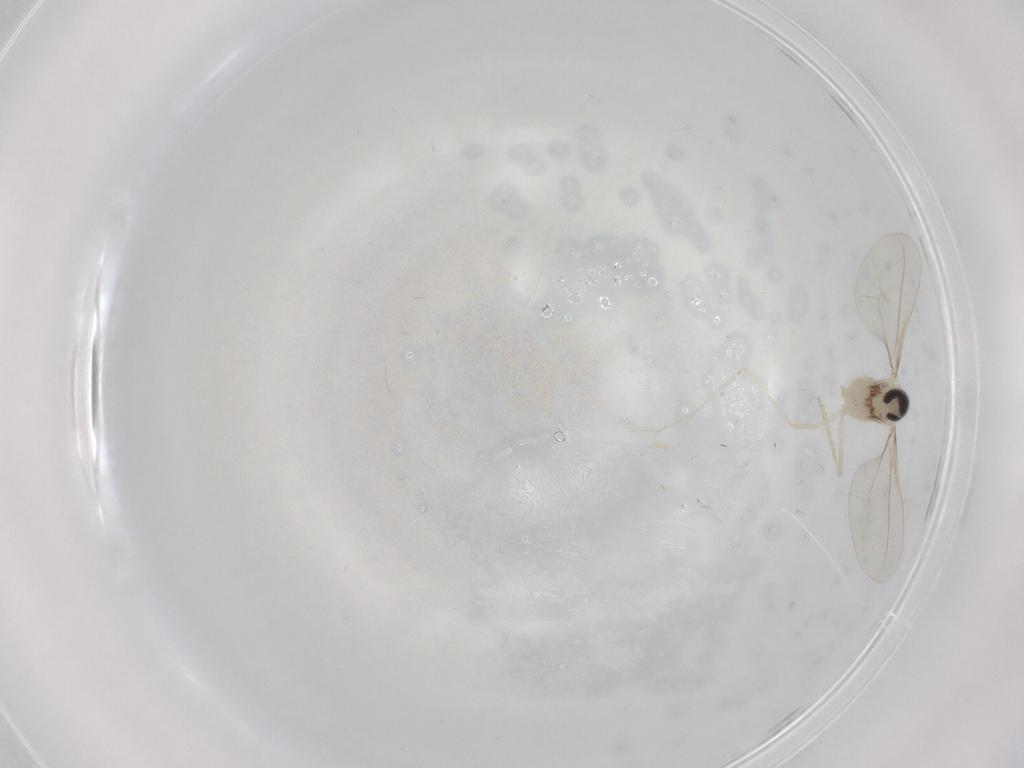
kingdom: Animalia
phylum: Arthropoda
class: Insecta
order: Diptera
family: Cecidomyiidae
